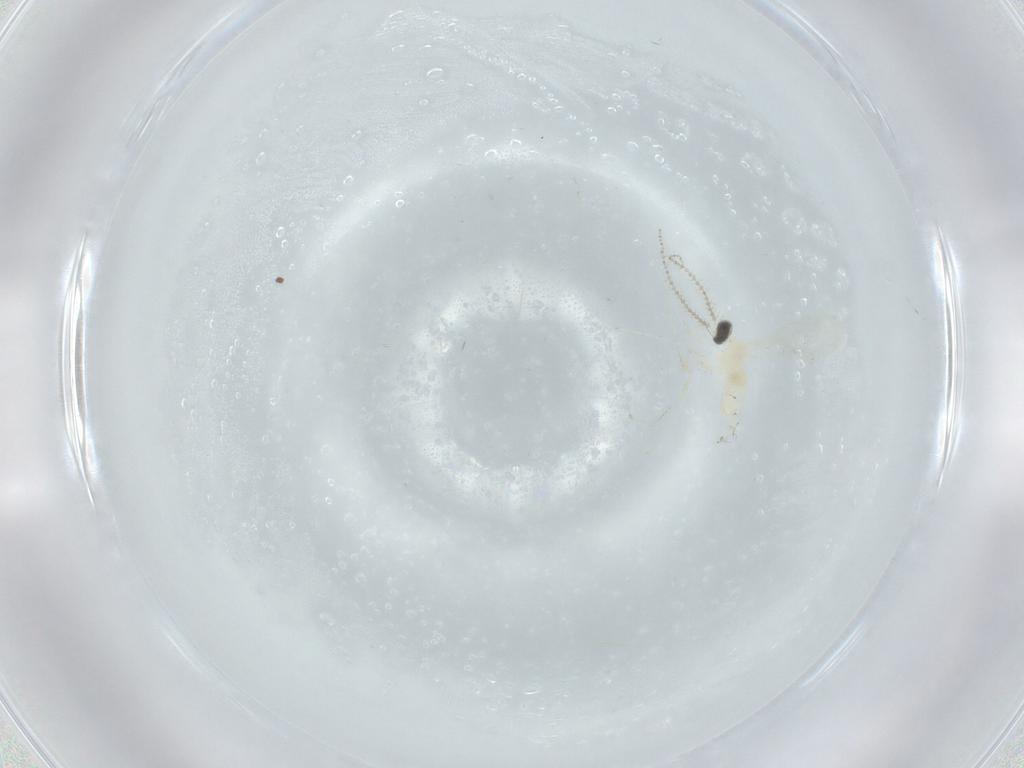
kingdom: Animalia
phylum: Arthropoda
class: Insecta
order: Diptera
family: Cecidomyiidae
